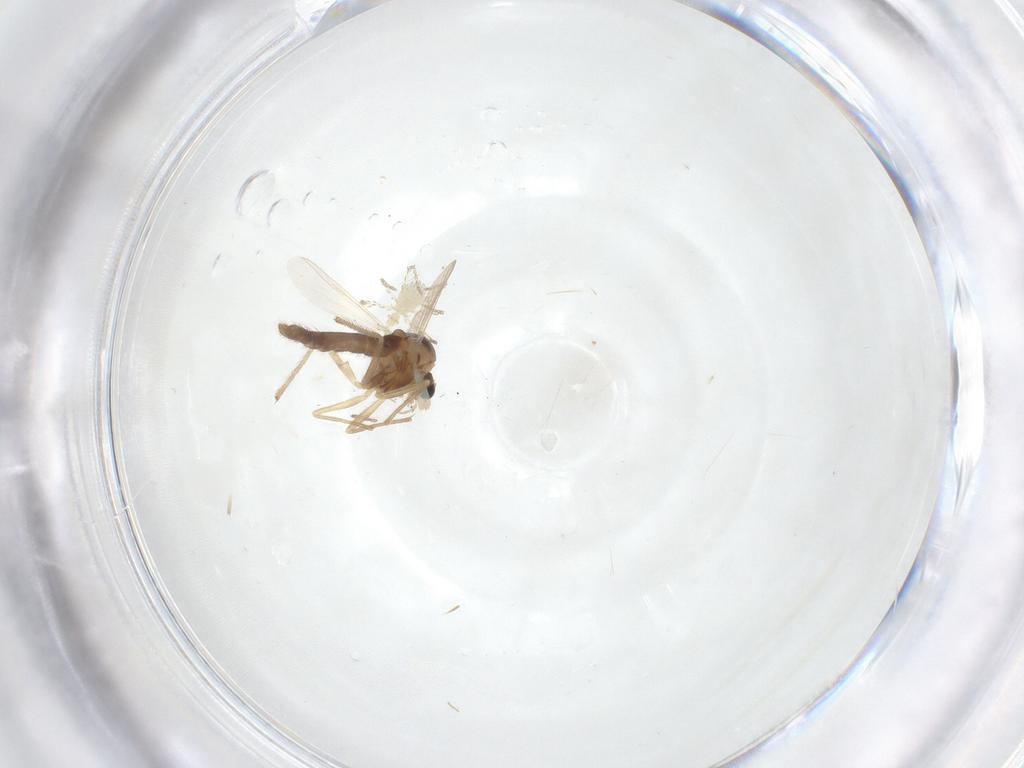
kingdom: Animalia
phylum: Arthropoda
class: Insecta
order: Diptera
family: Chironomidae
